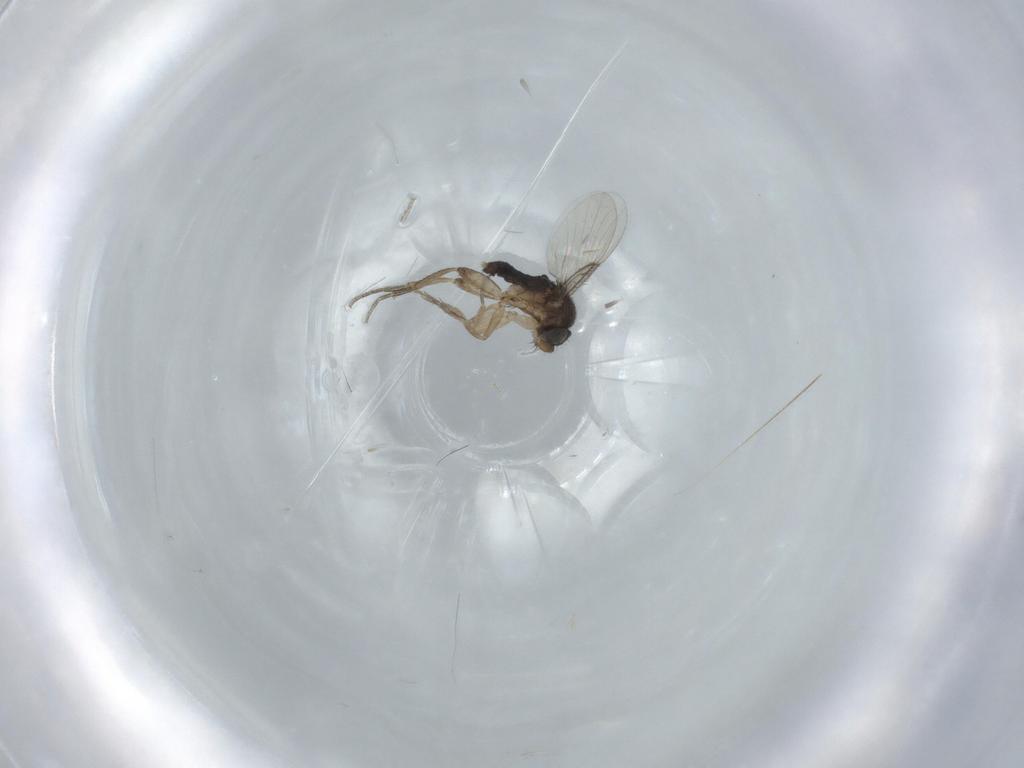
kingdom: Animalia
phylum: Arthropoda
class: Insecta
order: Diptera
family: Phoridae
